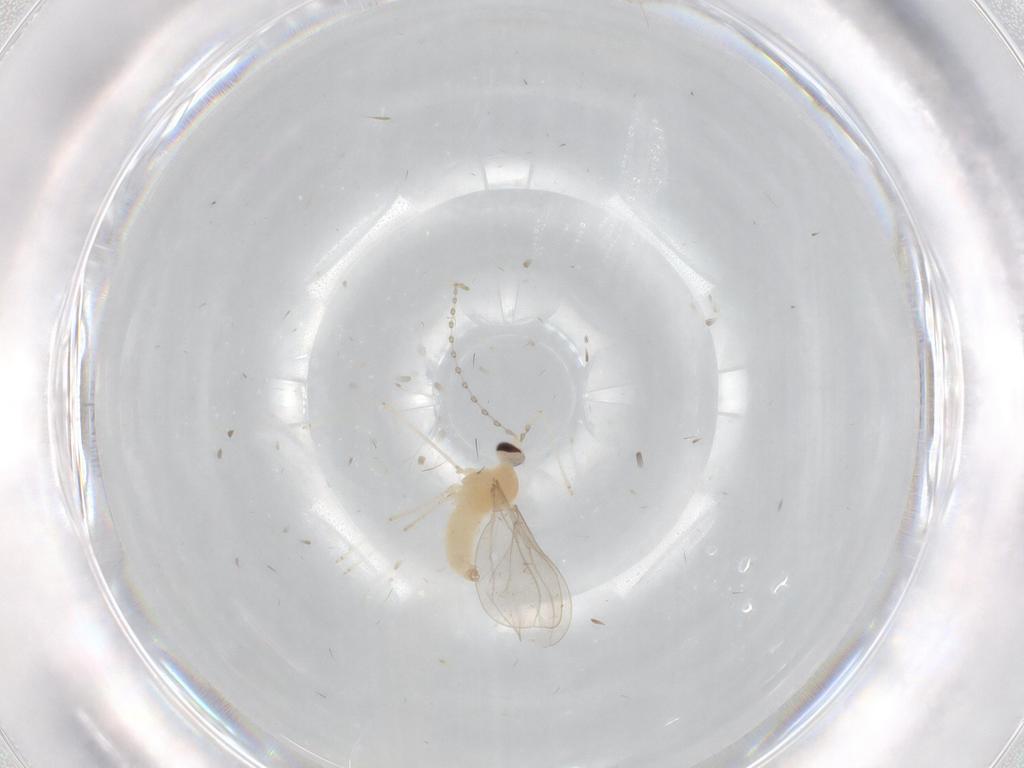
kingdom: Animalia
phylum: Arthropoda
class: Insecta
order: Diptera
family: Cecidomyiidae
